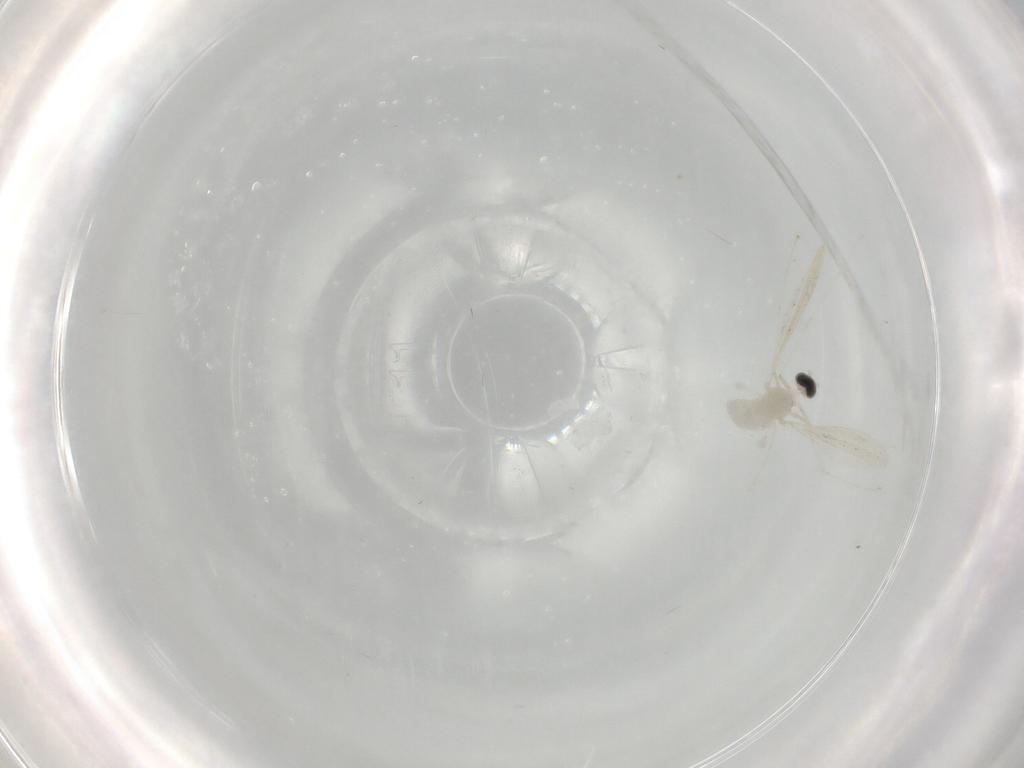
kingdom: Animalia
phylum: Arthropoda
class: Insecta
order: Diptera
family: Cecidomyiidae
